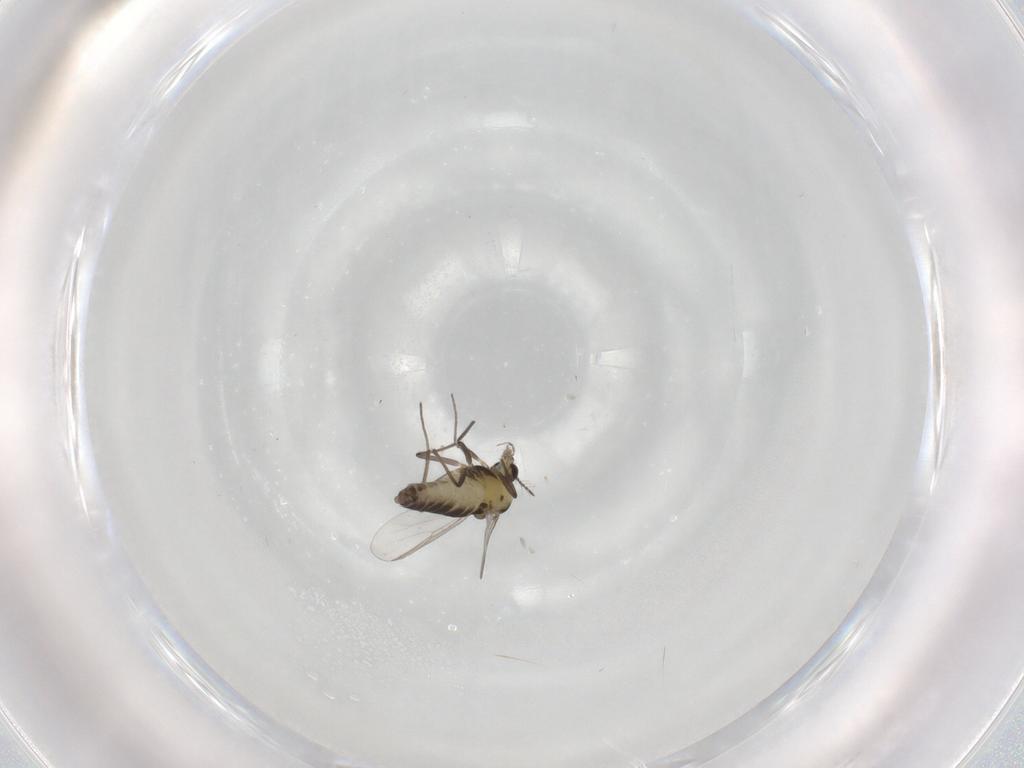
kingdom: Animalia
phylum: Arthropoda
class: Insecta
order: Diptera
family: Chironomidae
